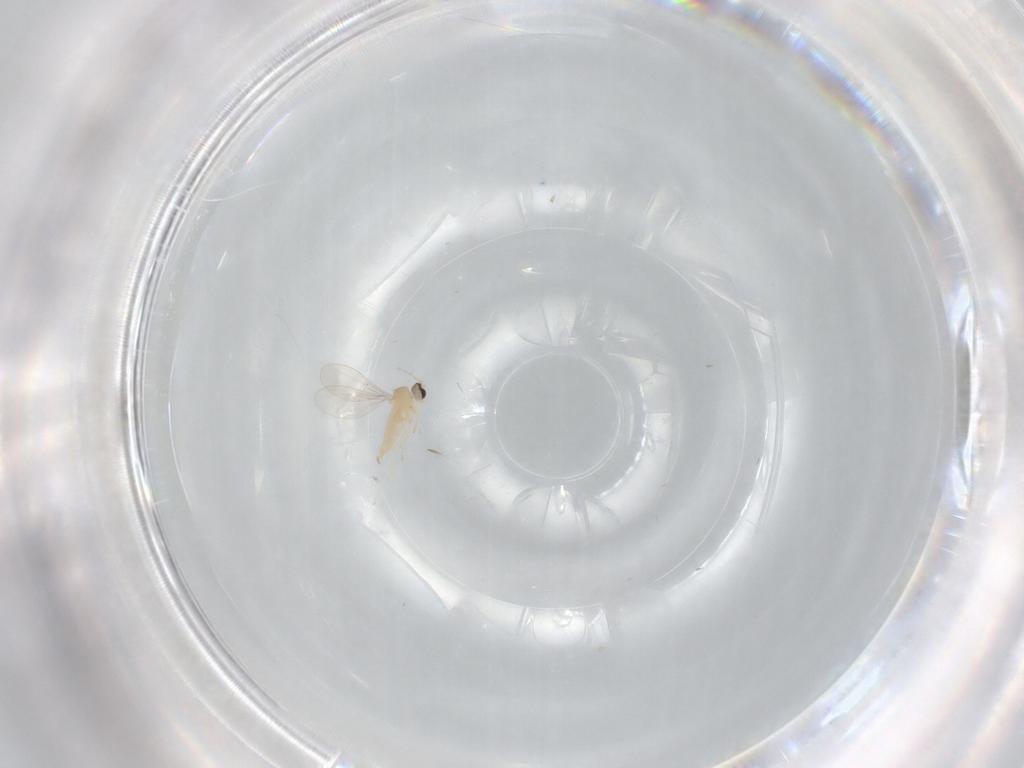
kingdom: Animalia
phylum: Arthropoda
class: Insecta
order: Diptera
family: Cecidomyiidae
